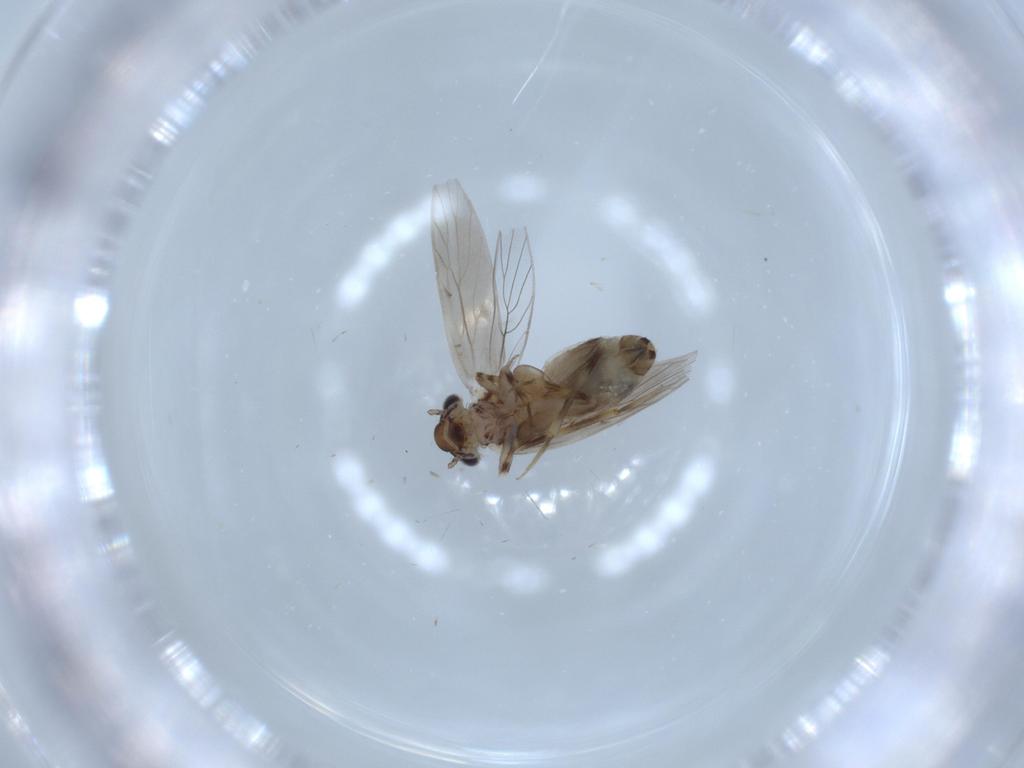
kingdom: Animalia
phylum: Arthropoda
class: Insecta
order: Psocodea
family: Lepidopsocidae
